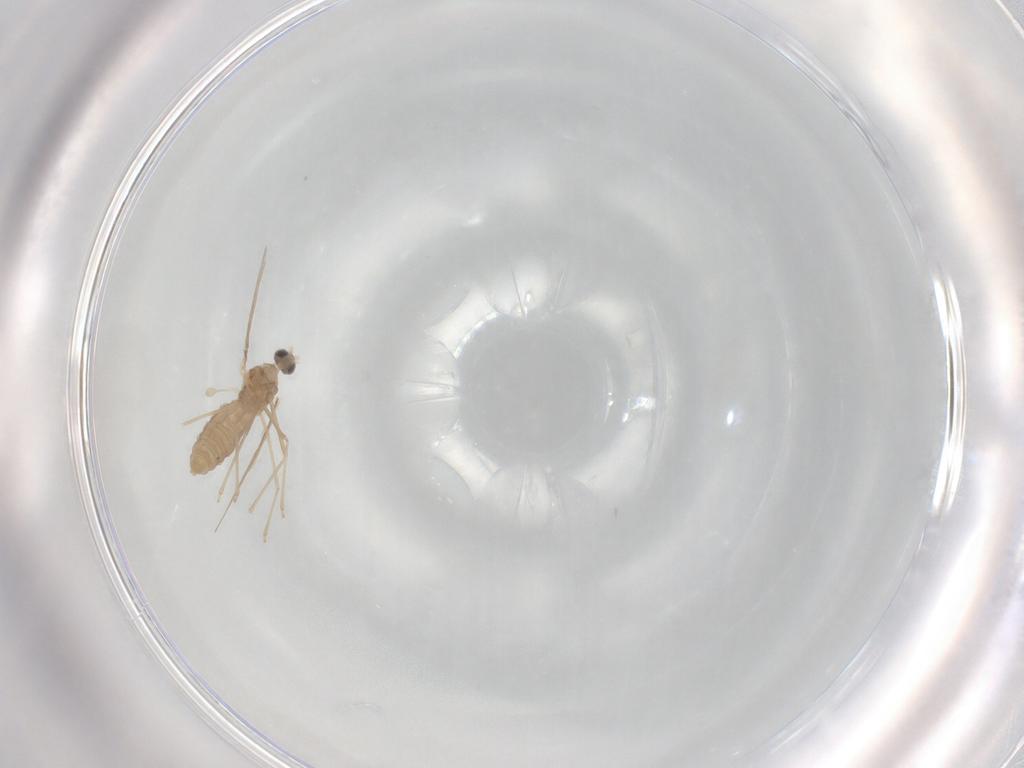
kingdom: Animalia
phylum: Arthropoda
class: Insecta
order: Diptera
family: Cecidomyiidae
